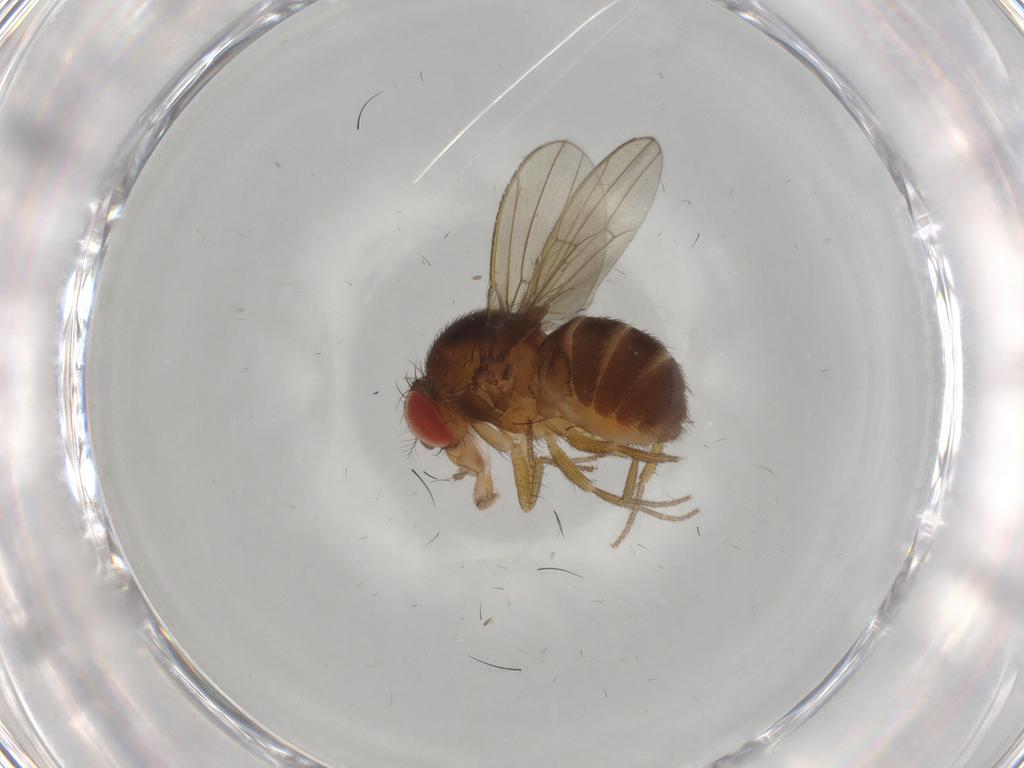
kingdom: Animalia
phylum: Arthropoda
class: Insecta
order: Diptera
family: Drosophilidae
